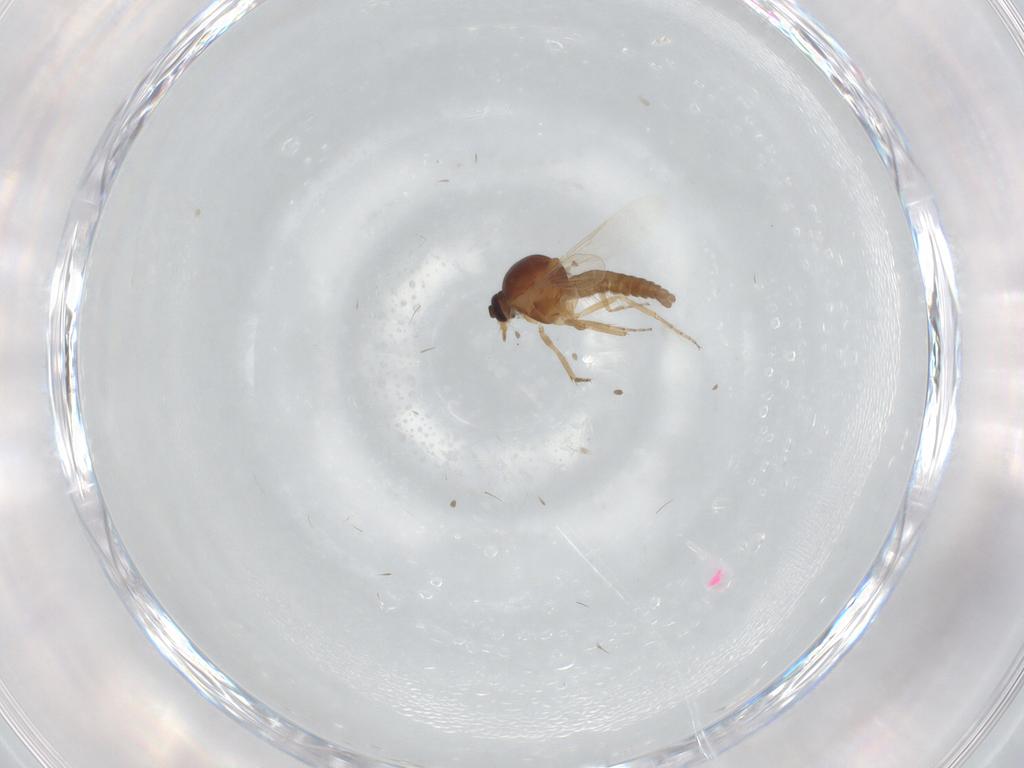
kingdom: Animalia
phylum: Arthropoda
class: Insecta
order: Diptera
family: Ceratopogonidae
